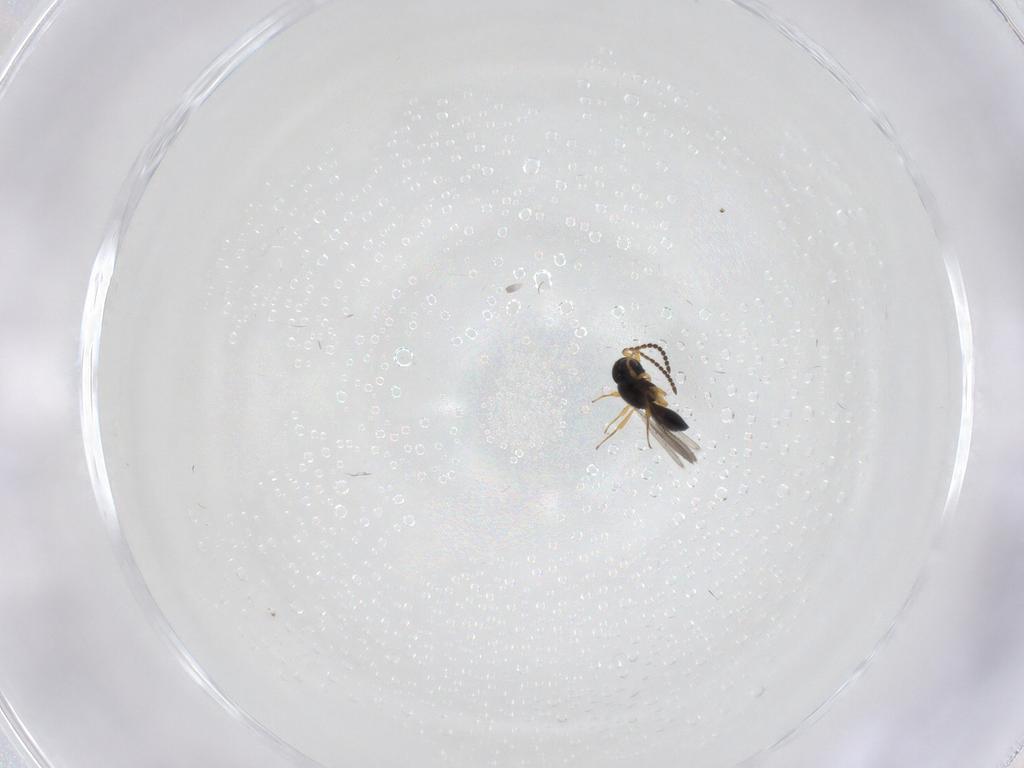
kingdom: Animalia
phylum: Arthropoda
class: Insecta
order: Hymenoptera
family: Scelionidae
